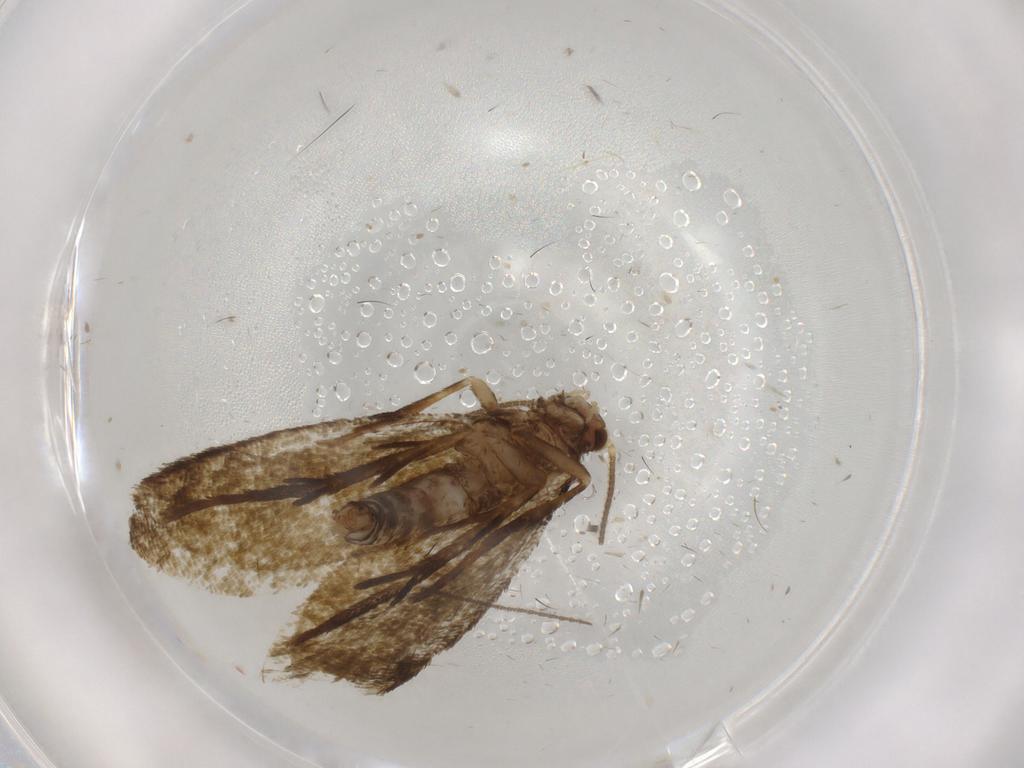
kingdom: Animalia
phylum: Arthropoda
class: Insecta
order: Lepidoptera
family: Tineidae
